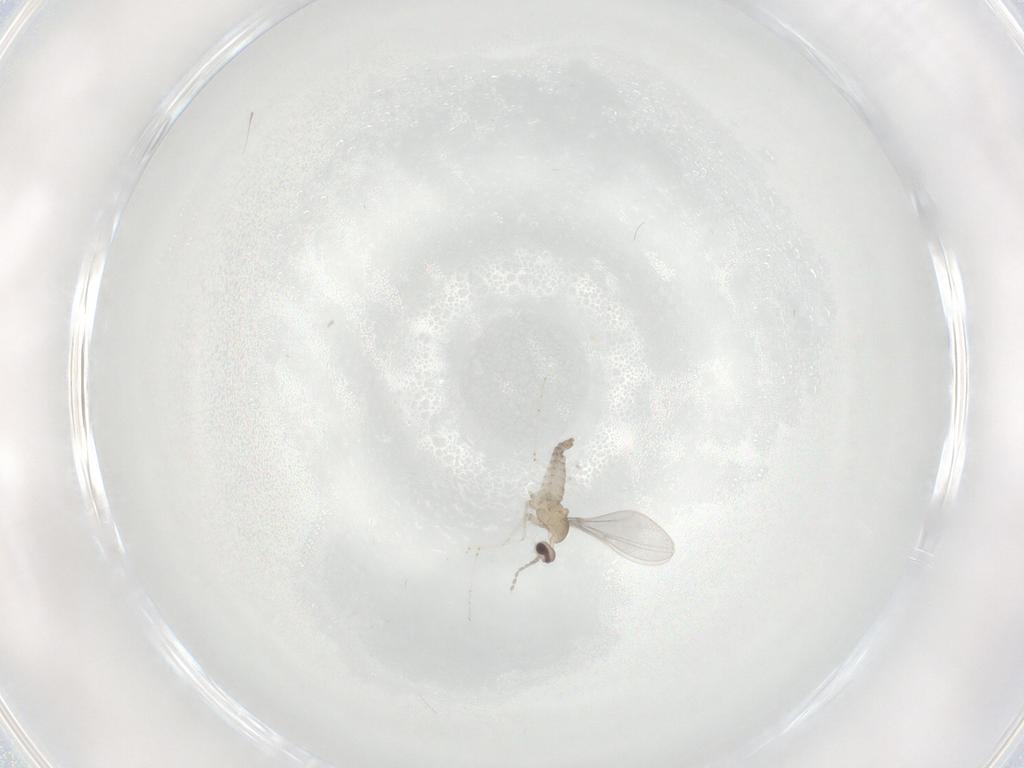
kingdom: Animalia
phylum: Arthropoda
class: Insecta
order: Diptera
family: Cecidomyiidae
